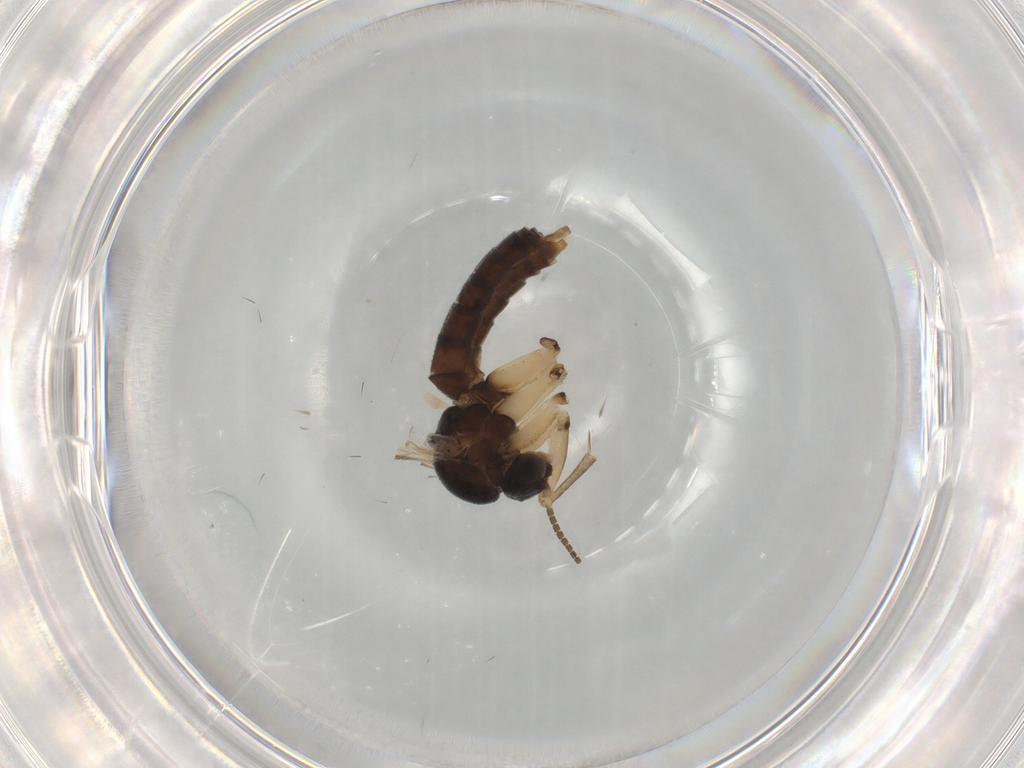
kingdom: Animalia
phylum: Arthropoda
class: Insecta
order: Diptera
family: Chironomidae
